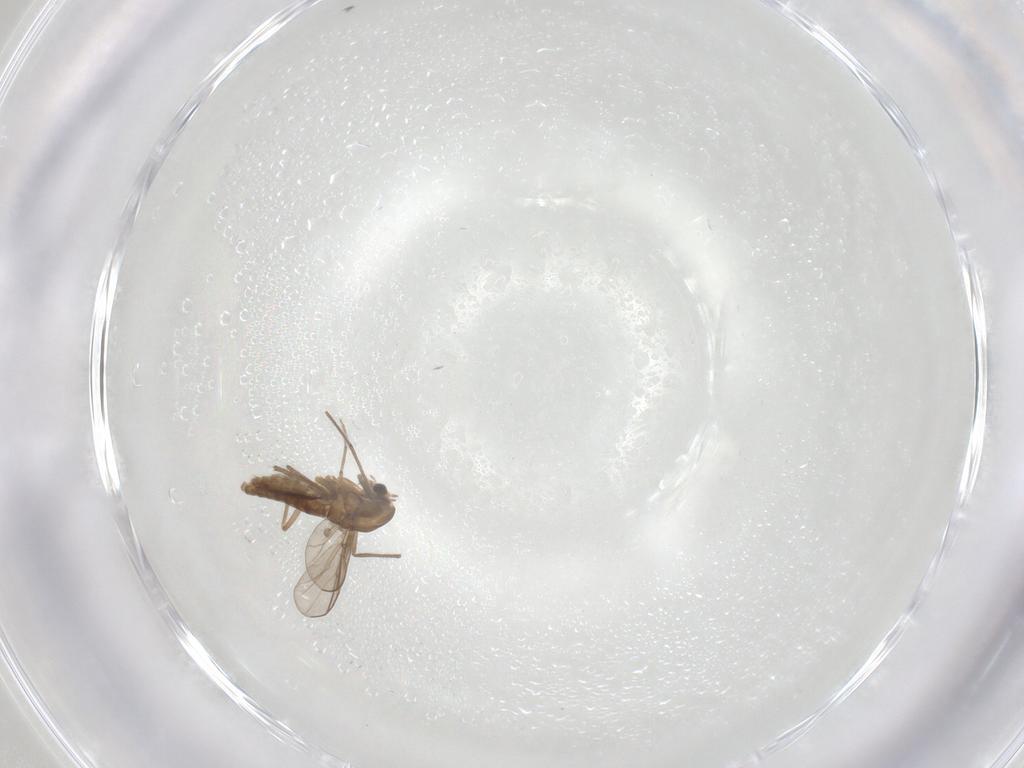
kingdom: Animalia
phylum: Arthropoda
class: Insecta
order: Diptera
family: Chironomidae
